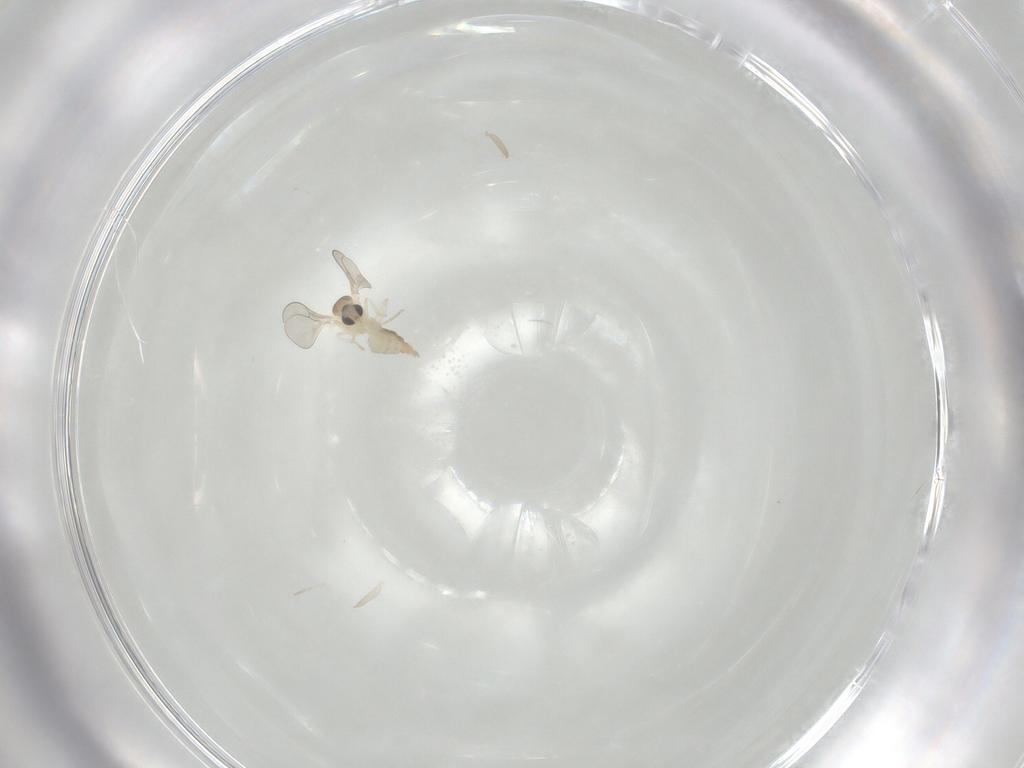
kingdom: Animalia
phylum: Arthropoda
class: Insecta
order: Diptera
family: Cecidomyiidae
